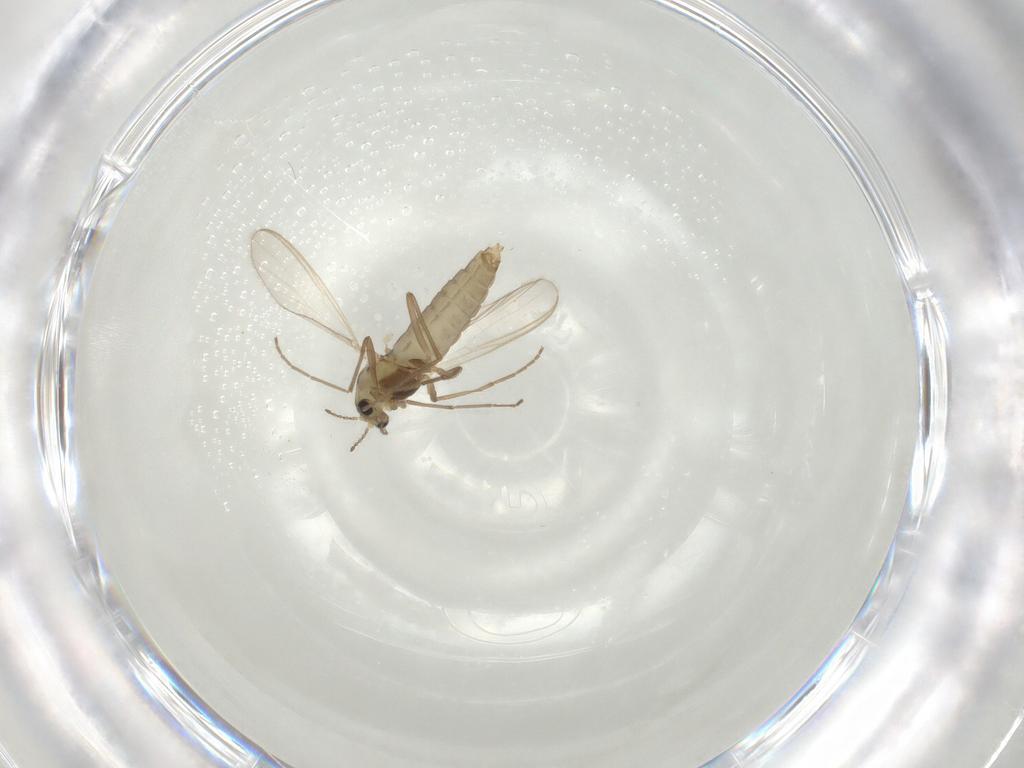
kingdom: Animalia
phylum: Arthropoda
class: Insecta
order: Diptera
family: Chironomidae
